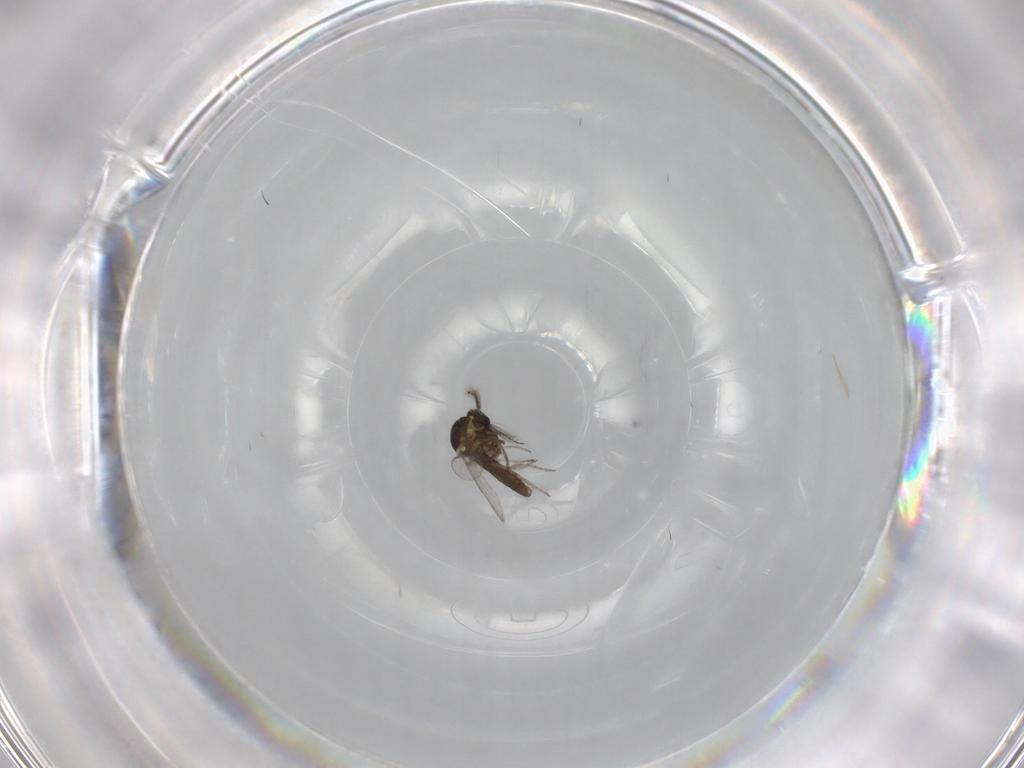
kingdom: Animalia
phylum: Arthropoda
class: Insecta
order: Diptera
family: Ceratopogonidae
